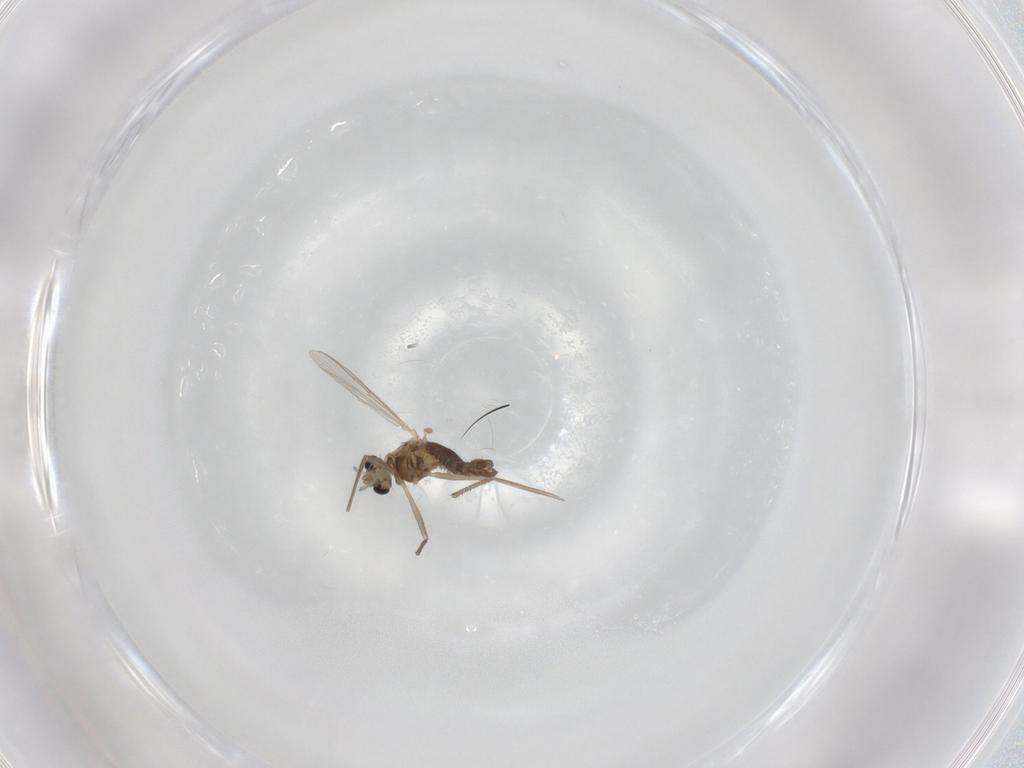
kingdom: Animalia
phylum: Arthropoda
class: Insecta
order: Diptera
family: Chironomidae
